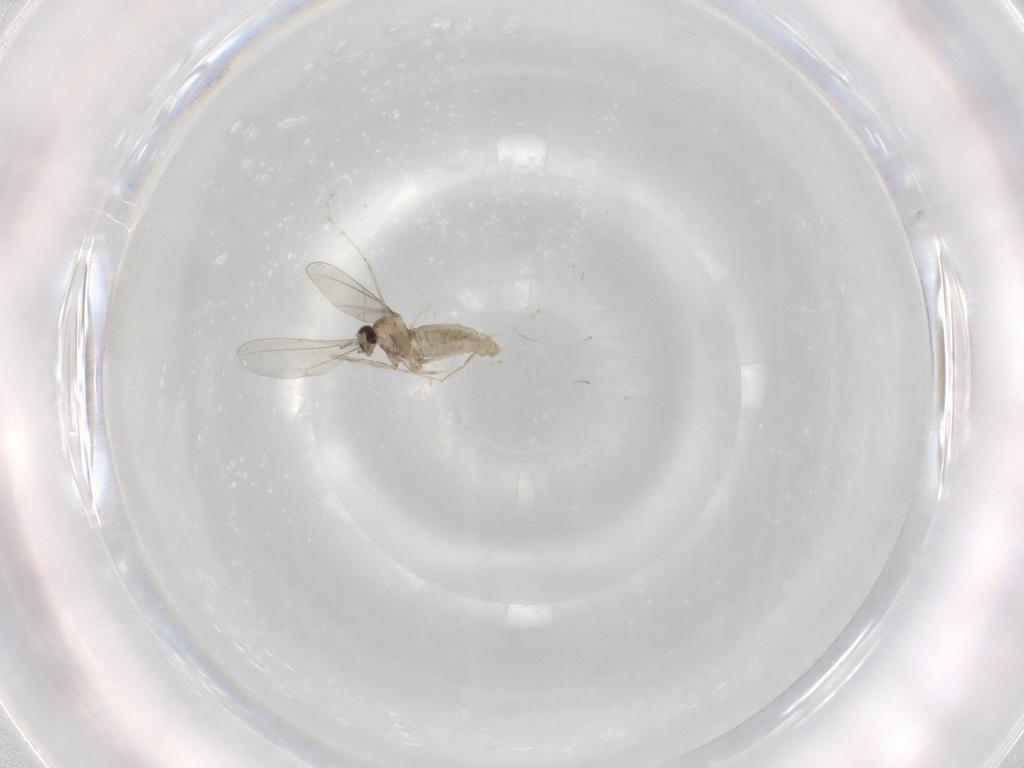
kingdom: Animalia
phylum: Arthropoda
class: Insecta
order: Diptera
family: Cecidomyiidae
